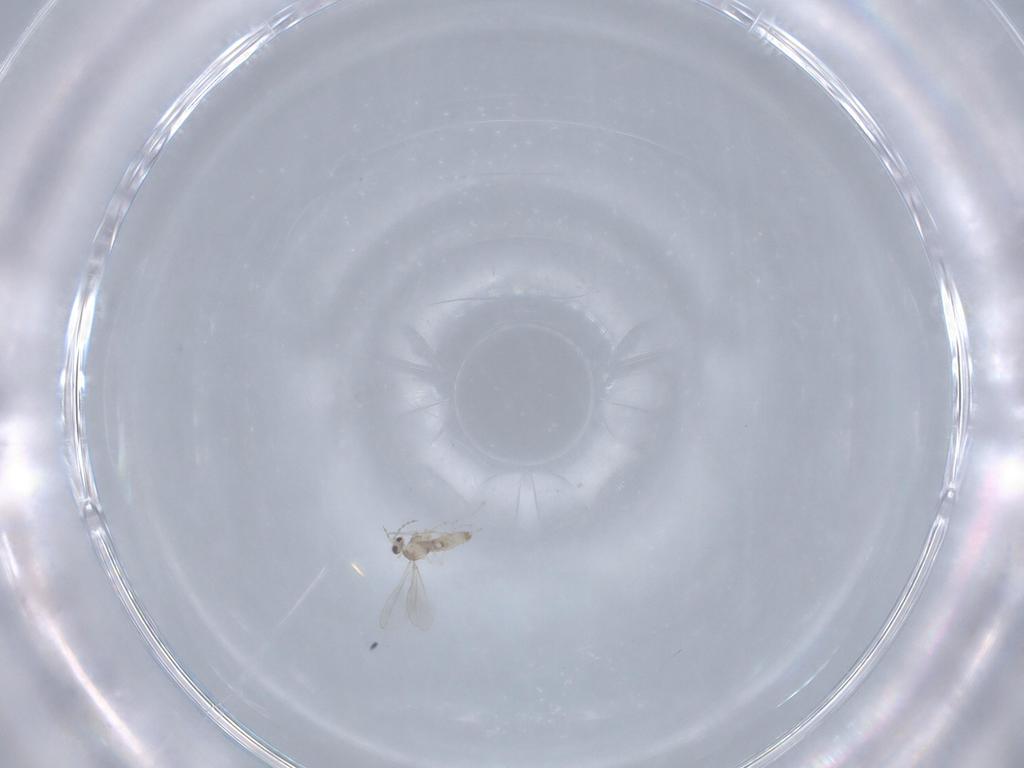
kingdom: Animalia
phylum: Arthropoda
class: Insecta
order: Diptera
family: Cecidomyiidae
